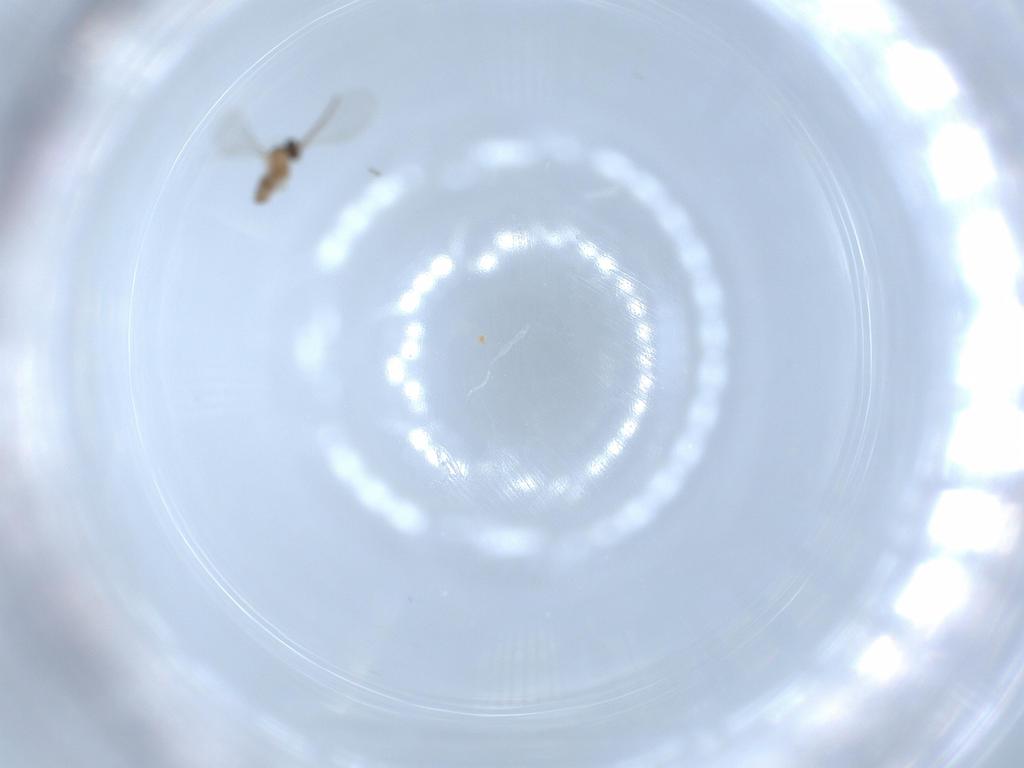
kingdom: Animalia
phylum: Arthropoda
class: Insecta
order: Diptera
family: Cecidomyiidae
